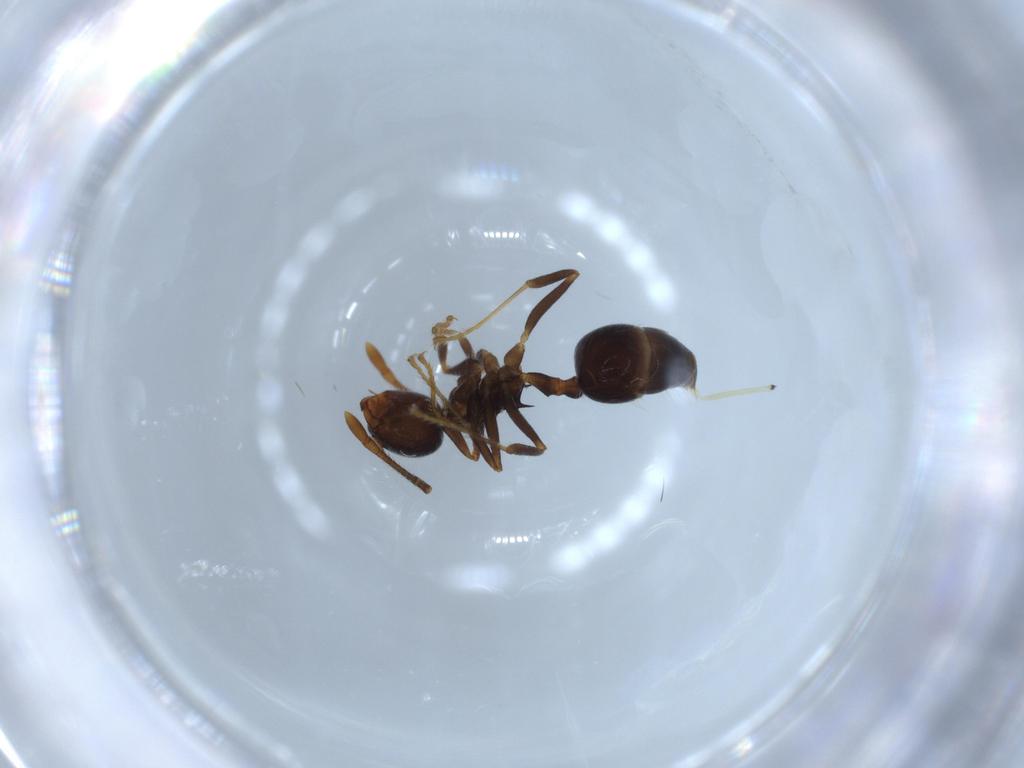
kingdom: Animalia
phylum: Arthropoda
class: Insecta
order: Hymenoptera
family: Formicidae
